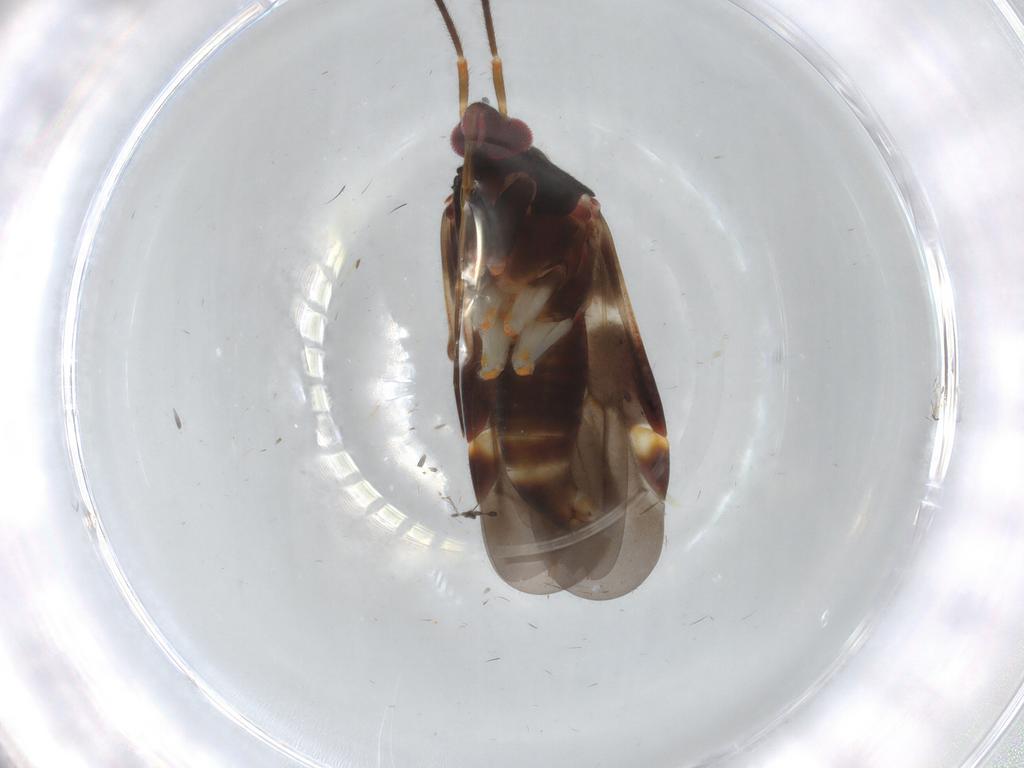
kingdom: Animalia
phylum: Arthropoda
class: Insecta
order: Hemiptera
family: Miridae
